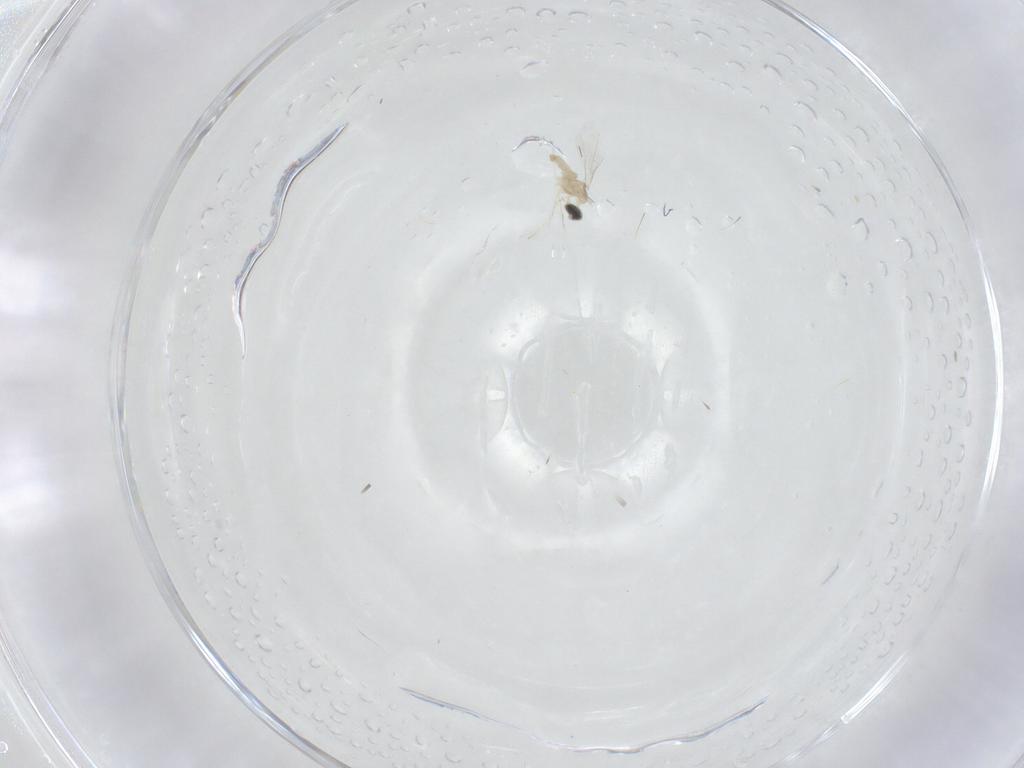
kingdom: Animalia
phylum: Arthropoda
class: Insecta
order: Diptera
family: Cecidomyiidae
